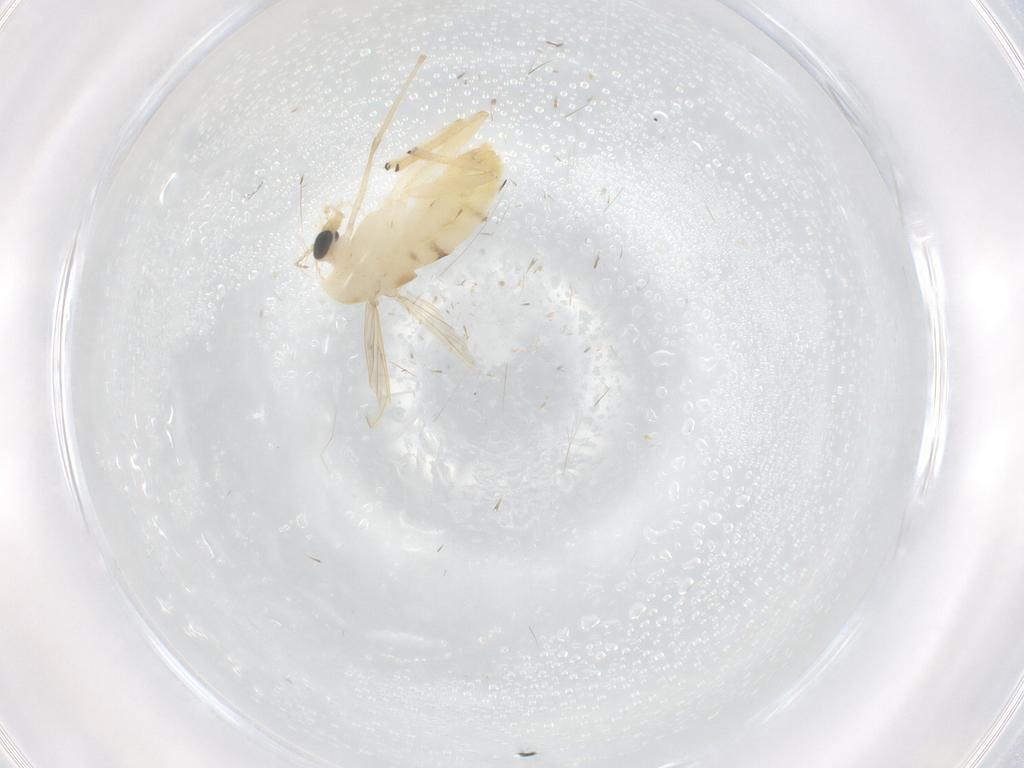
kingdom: Animalia
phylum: Arthropoda
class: Insecta
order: Diptera
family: Chironomidae
